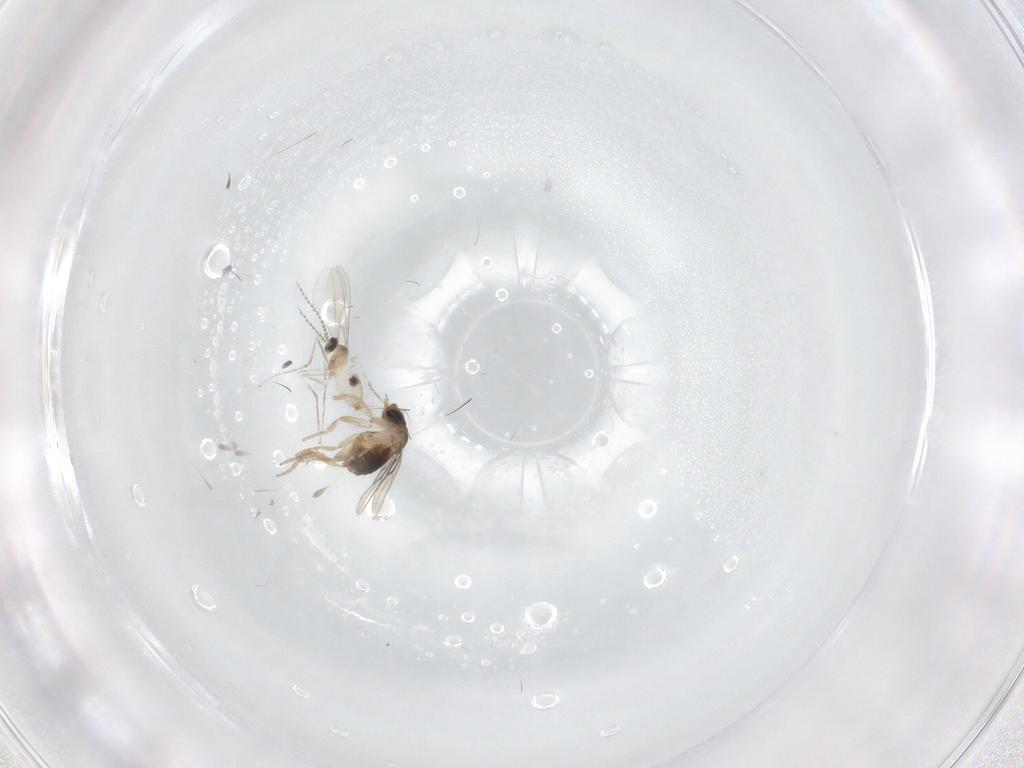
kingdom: Animalia
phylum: Arthropoda
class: Insecta
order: Diptera
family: Cecidomyiidae
